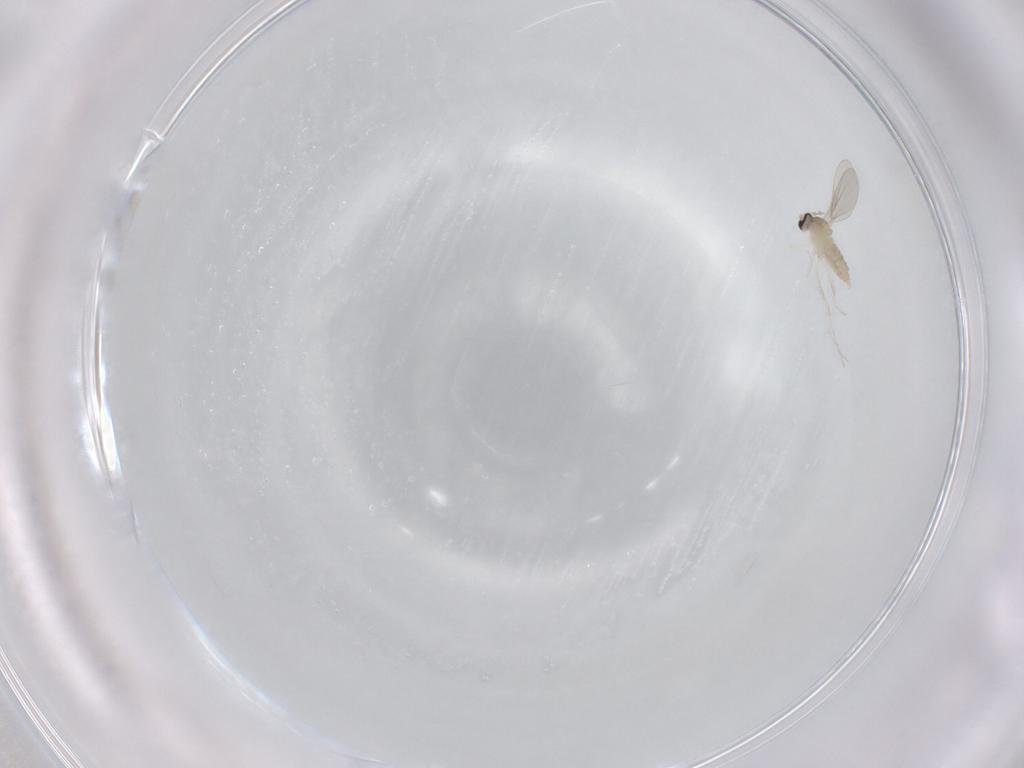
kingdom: Animalia
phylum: Arthropoda
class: Insecta
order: Diptera
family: Cecidomyiidae
